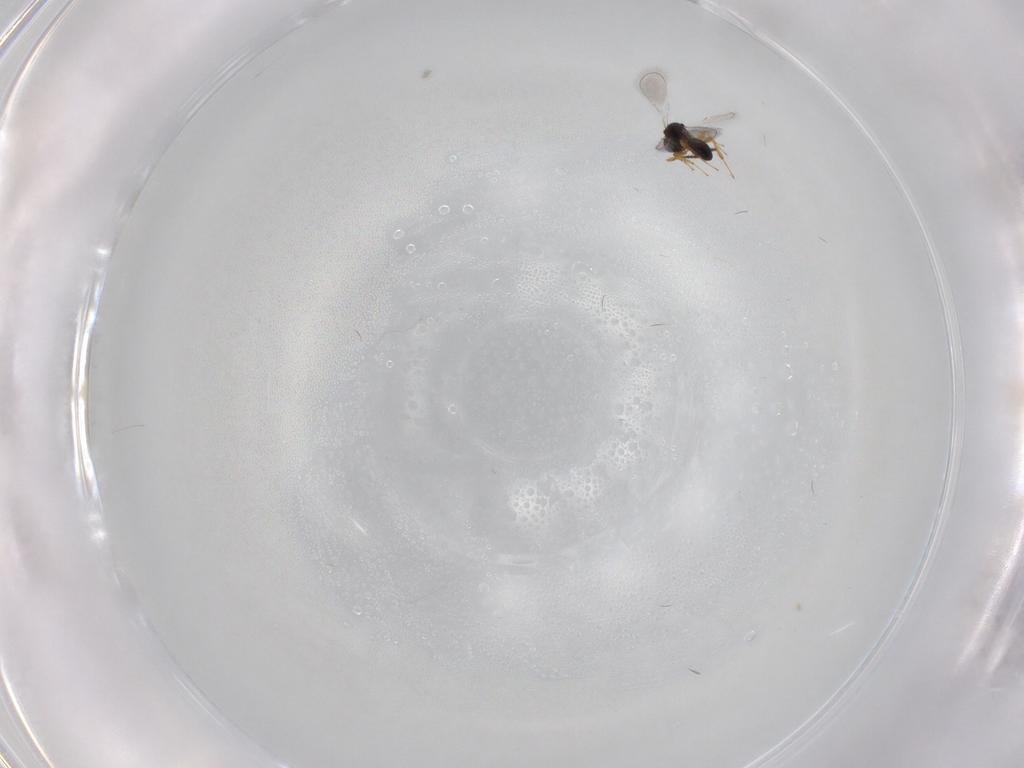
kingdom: Animalia
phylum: Arthropoda
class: Insecta
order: Hymenoptera
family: Platygastridae
